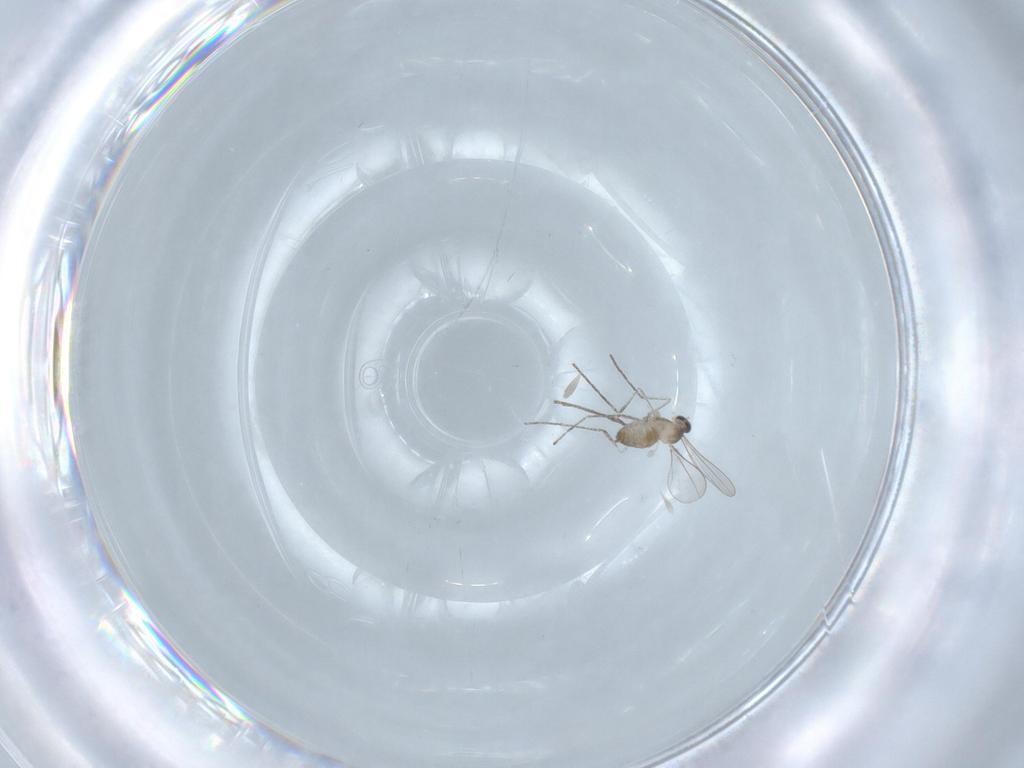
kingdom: Animalia
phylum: Arthropoda
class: Insecta
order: Diptera
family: Cecidomyiidae
